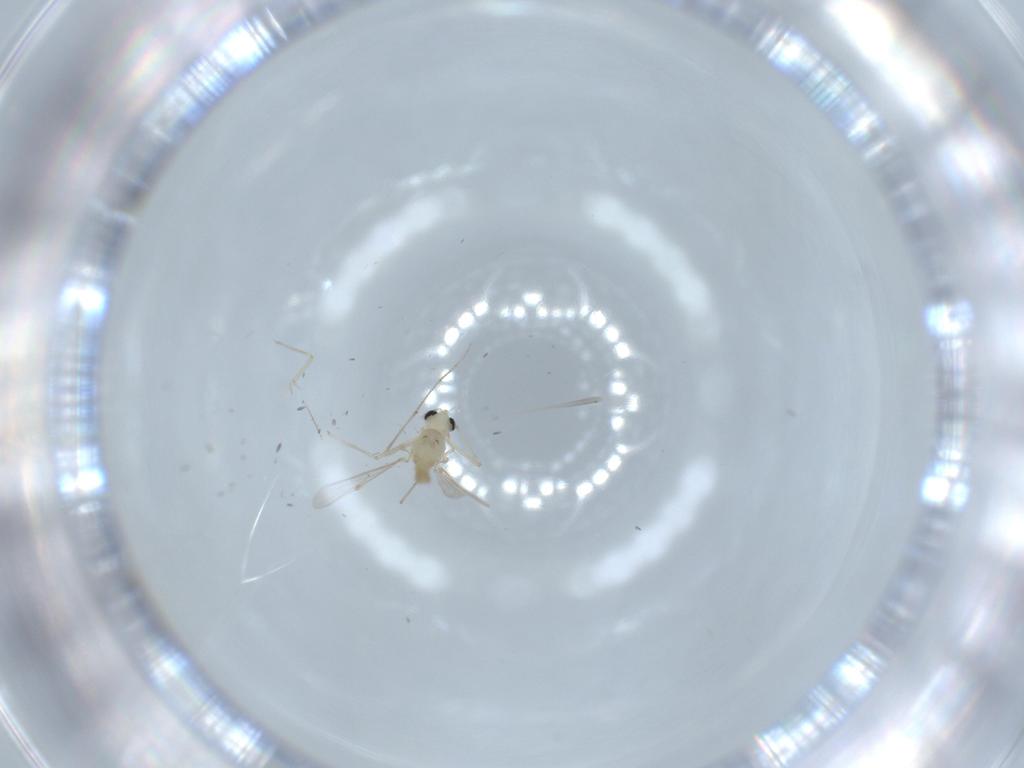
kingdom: Animalia
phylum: Arthropoda
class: Insecta
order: Diptera
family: Chironomidae
